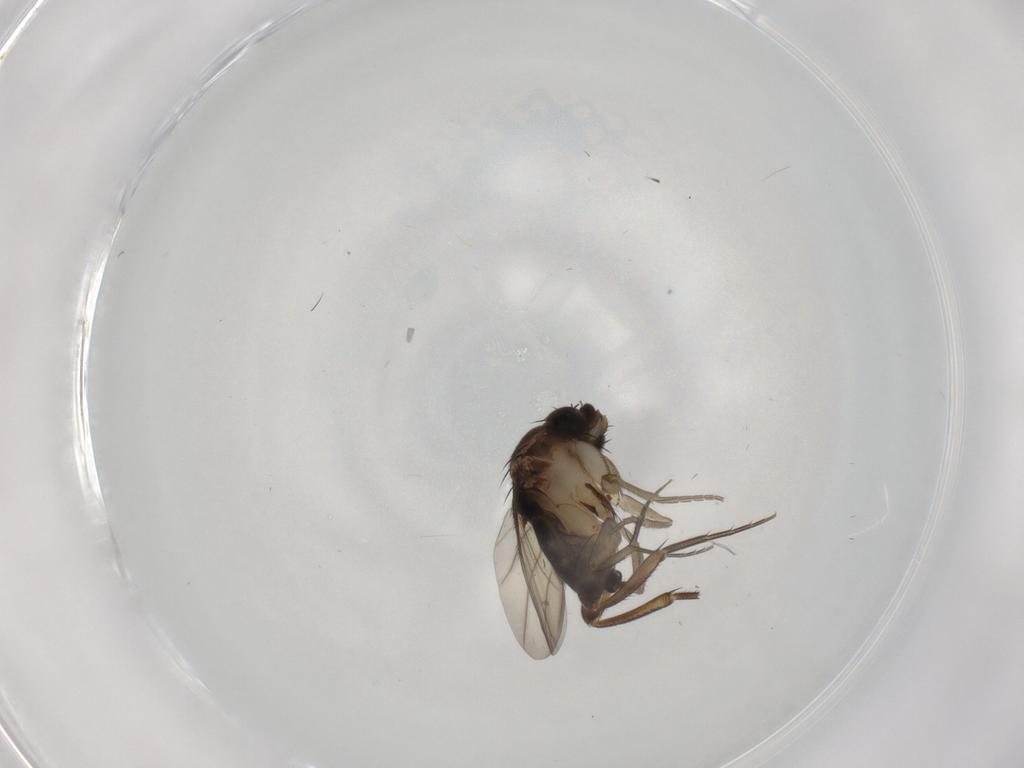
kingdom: Animalia
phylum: Arthropoda
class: Insecta
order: Diptera
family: Phoridae
